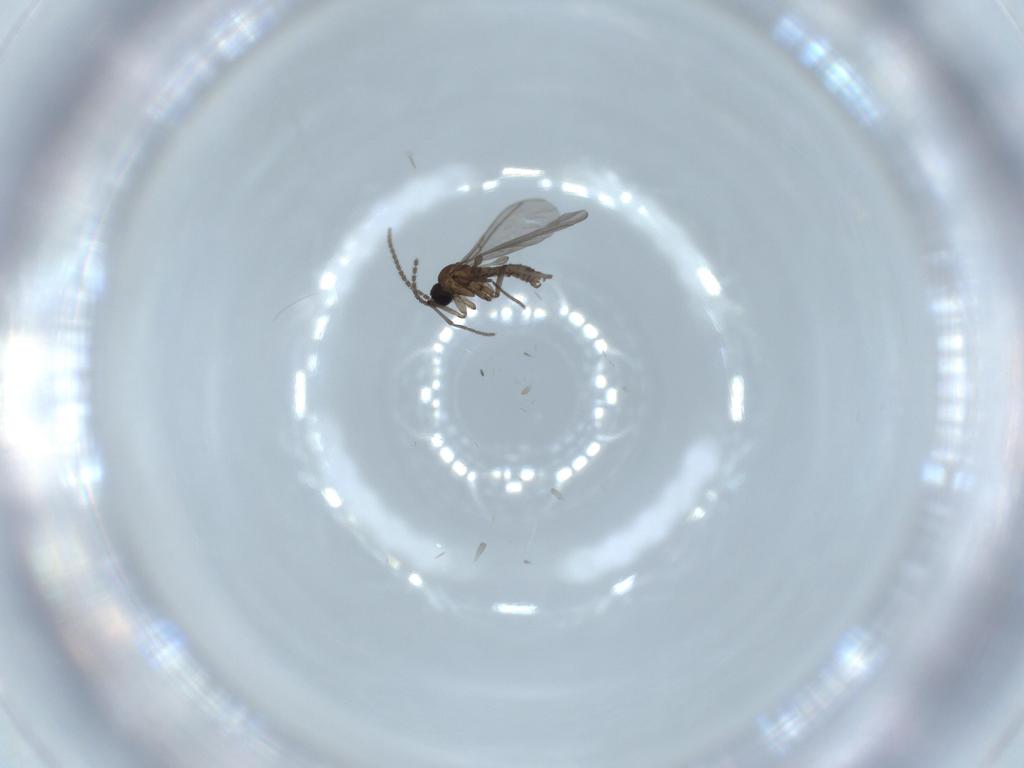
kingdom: Animalia
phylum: Arthropoda
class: Insecta
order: Diptera
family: Sciaridae
